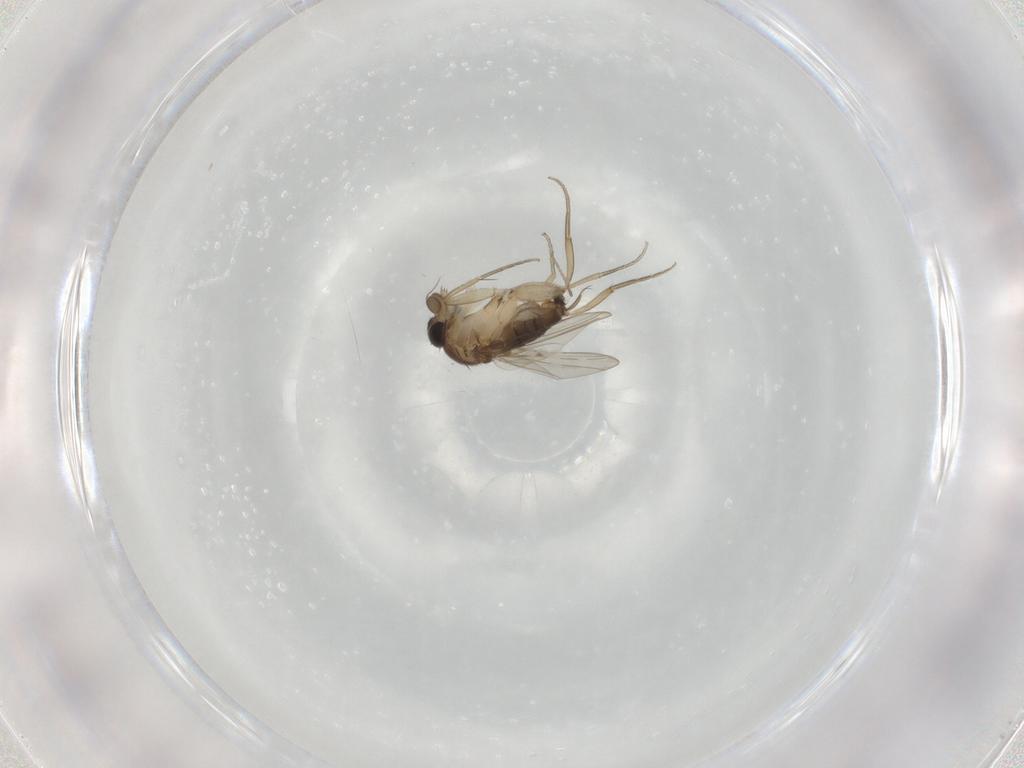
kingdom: Animalia
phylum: Arthropoda
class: Insecta
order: Diptera
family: Phoridae
